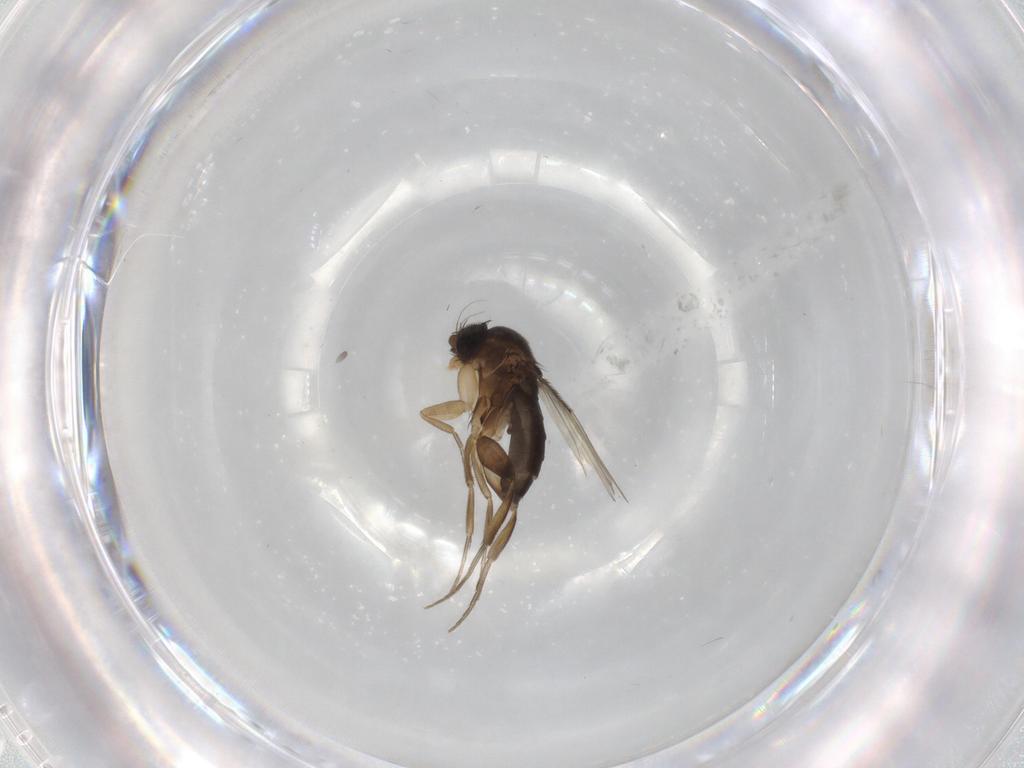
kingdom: Animalia
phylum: Arthropoda
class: Insecta
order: Diptera
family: Phoridae
